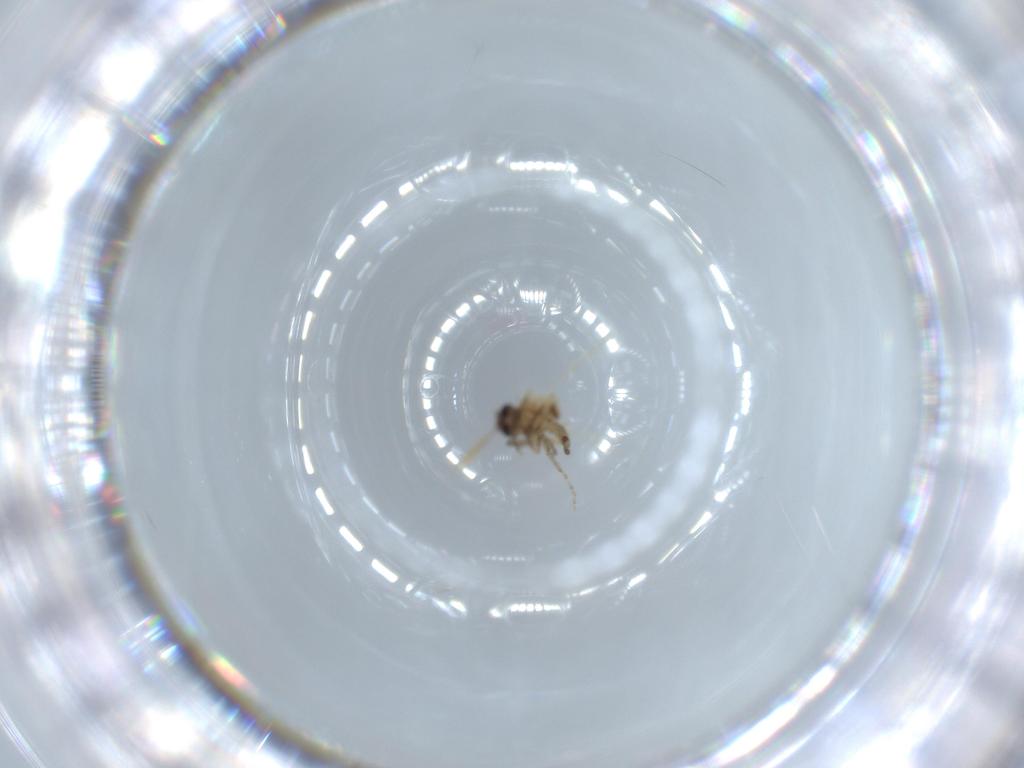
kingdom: Animalia
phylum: Arthropoda
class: Insecta
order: Diptera
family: Ceratopogonidae
